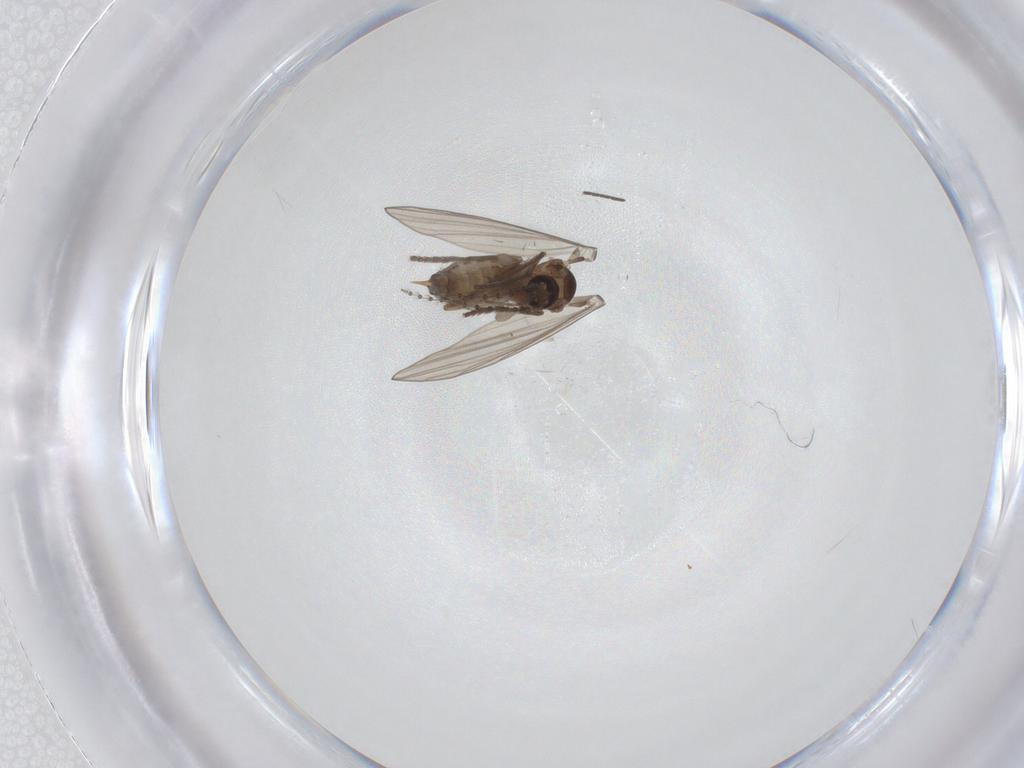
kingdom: Animalia
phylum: Arthropoda
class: Insecta
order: Diptera
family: Psychodidae
